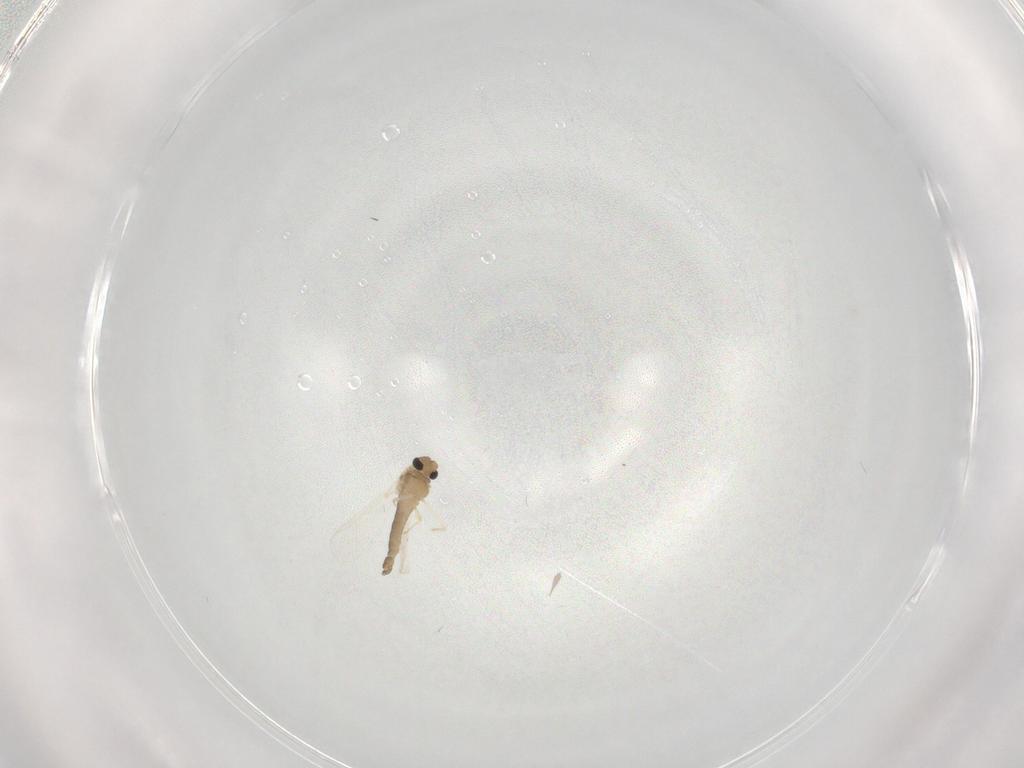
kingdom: Animalia
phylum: Arthropoda
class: Insecta
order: Diptera
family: Chironomidae
